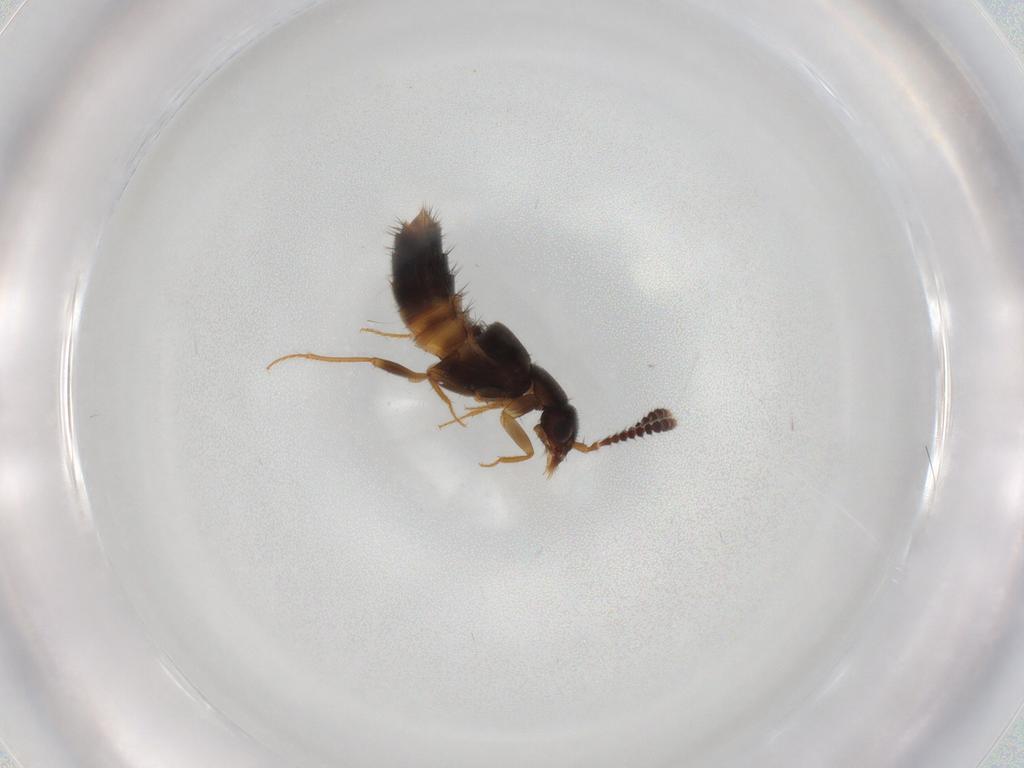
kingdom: Animalia
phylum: Arthropoda
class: Insecta
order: Coleoptera
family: Staphylinidae
